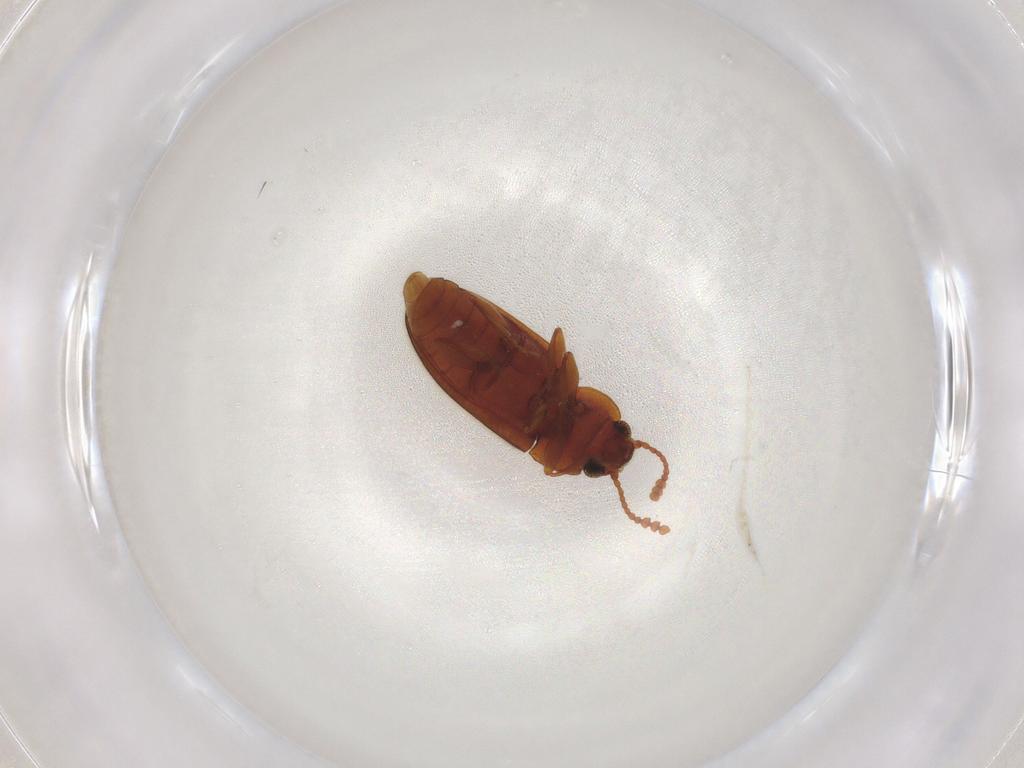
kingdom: Animalia
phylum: Arthropoda
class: Insecta
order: Coleoptera
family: Erotylidae
